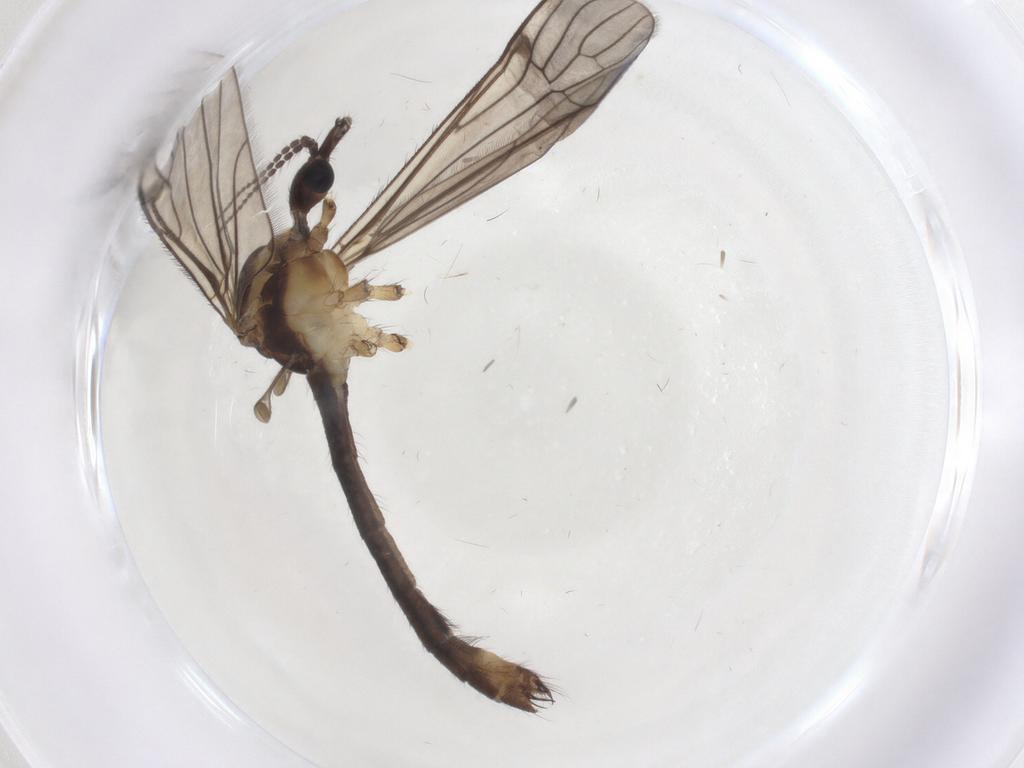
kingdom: Animalia
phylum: Arthropoda
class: Insecta
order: Diptera
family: Limoniidae
